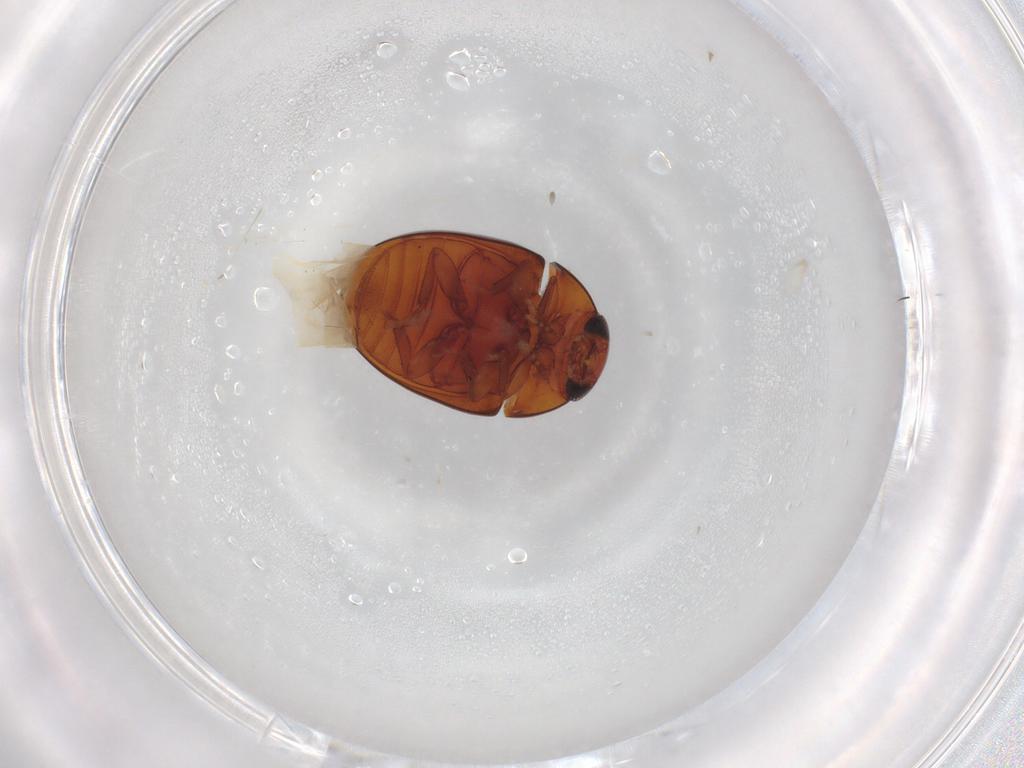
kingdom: Animalia
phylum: Arthropoda
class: Insecta
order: Coleoptera
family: Phalacridae
